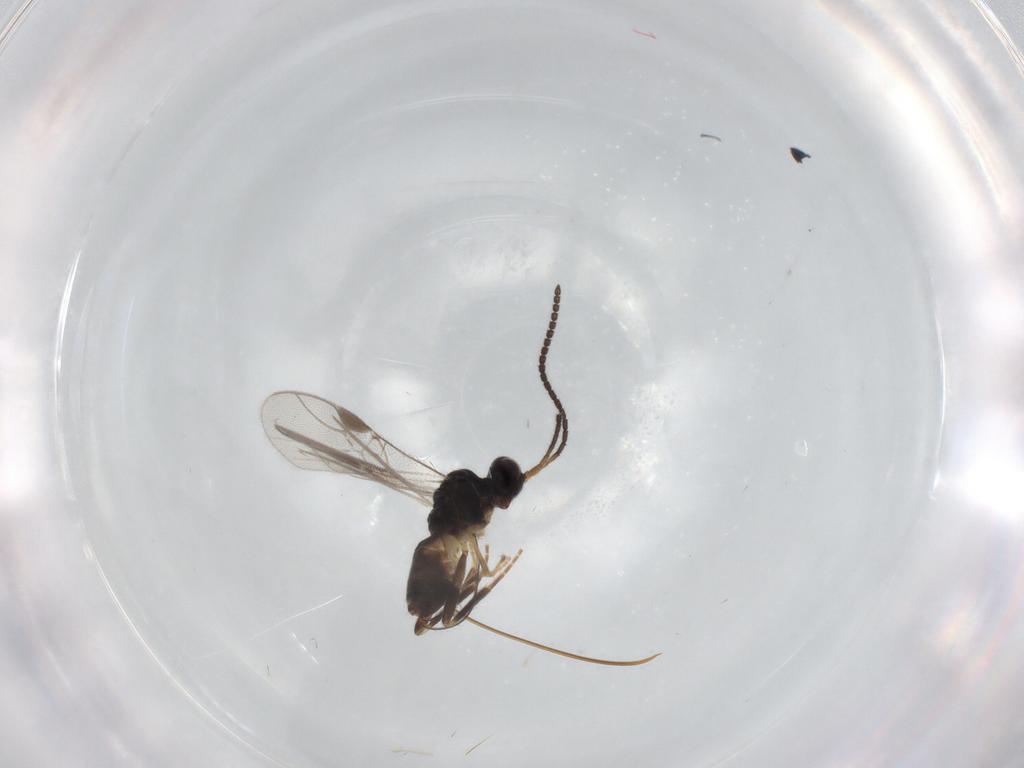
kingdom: Animalia
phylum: Arthropoda
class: Insecta
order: Hymenoptera
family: Braconidae
